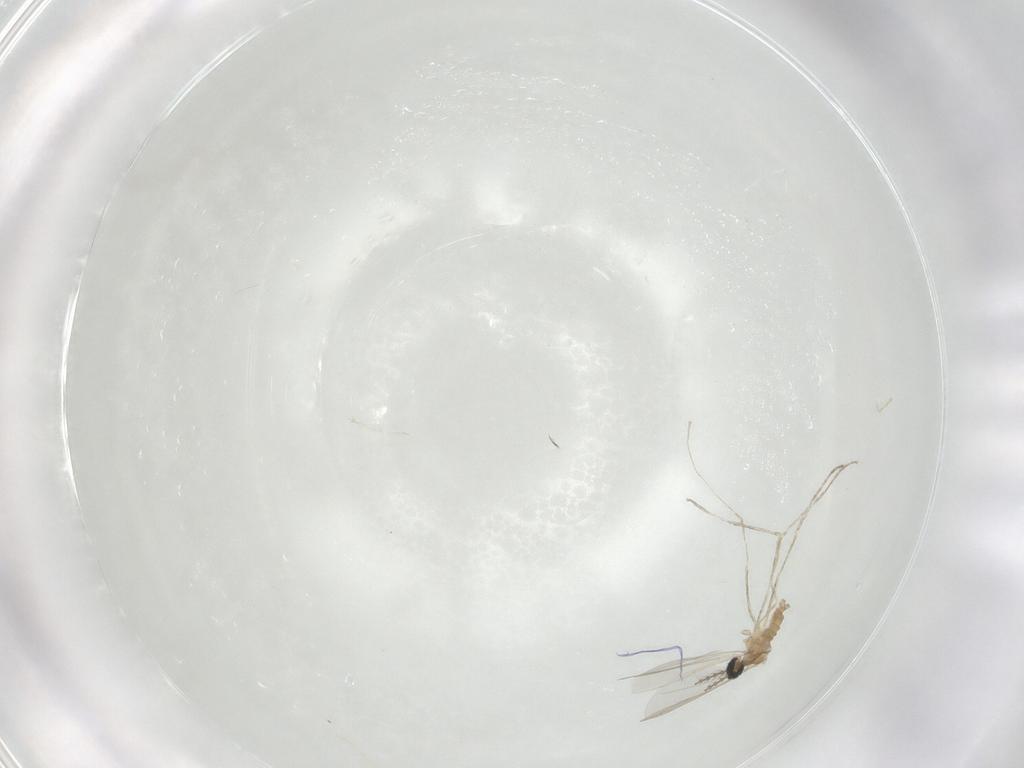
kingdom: Animalia
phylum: Arthropoda
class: Insecta
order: Diptera
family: Cecidomyiidae
